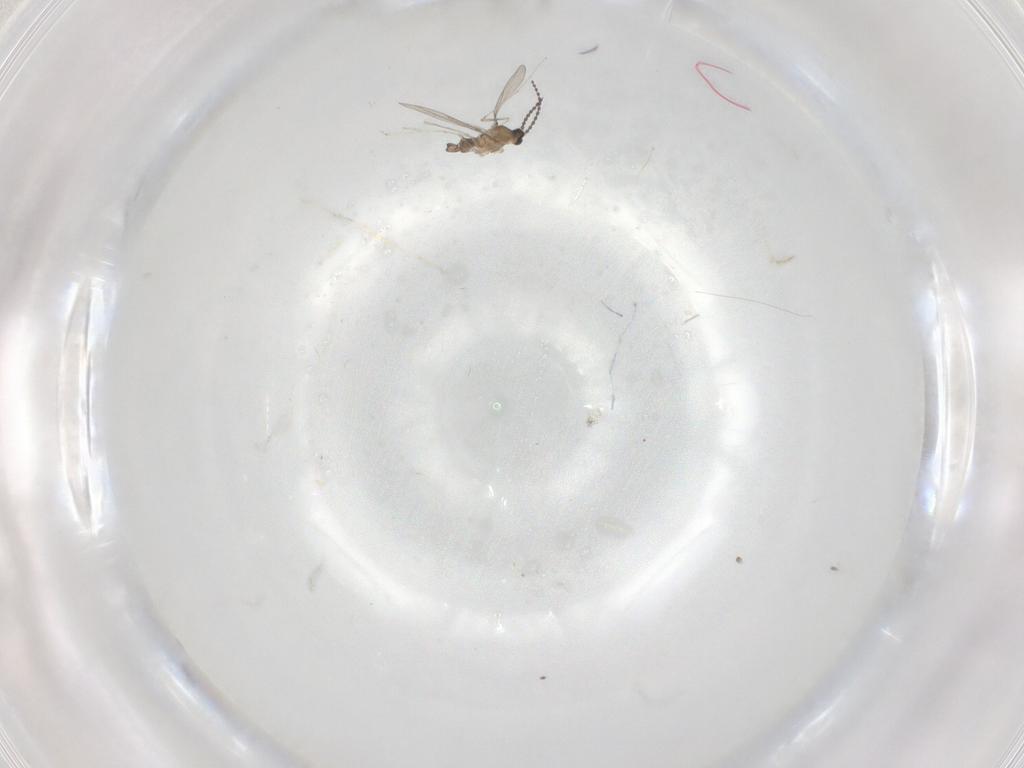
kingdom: Animalia
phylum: Arthropoda
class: Insecta
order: Diptera
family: Cecidomyiidae
